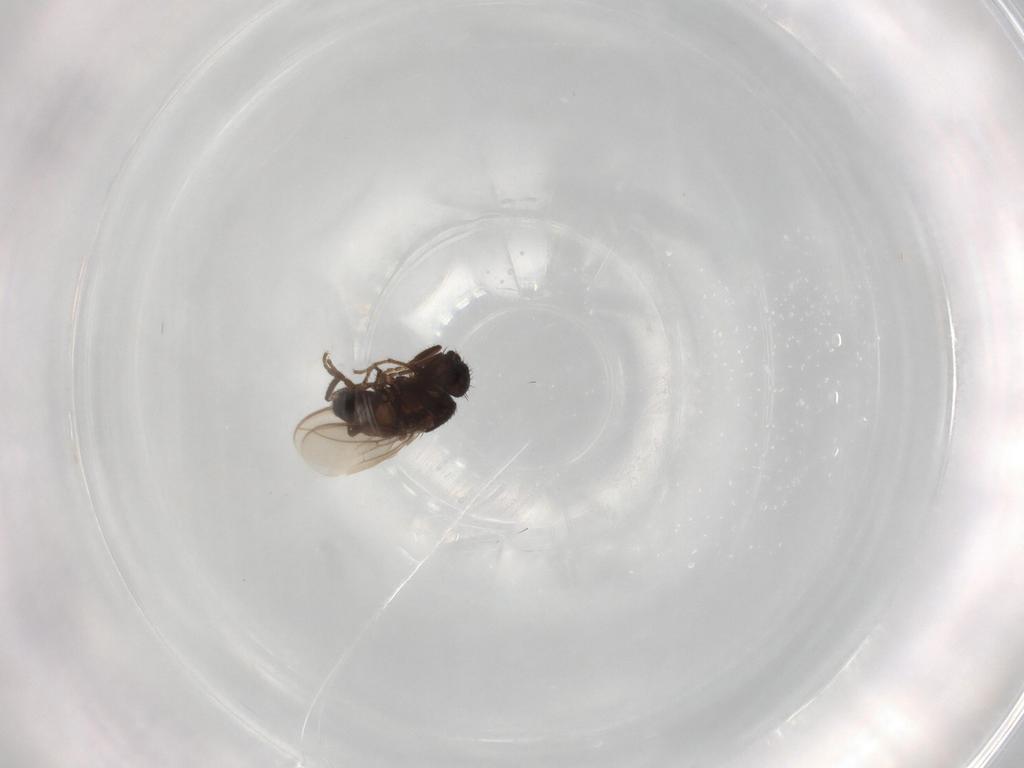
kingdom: Animalia
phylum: Arthropoda
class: Insecta
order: Diptera
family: Sphaeroceridae
